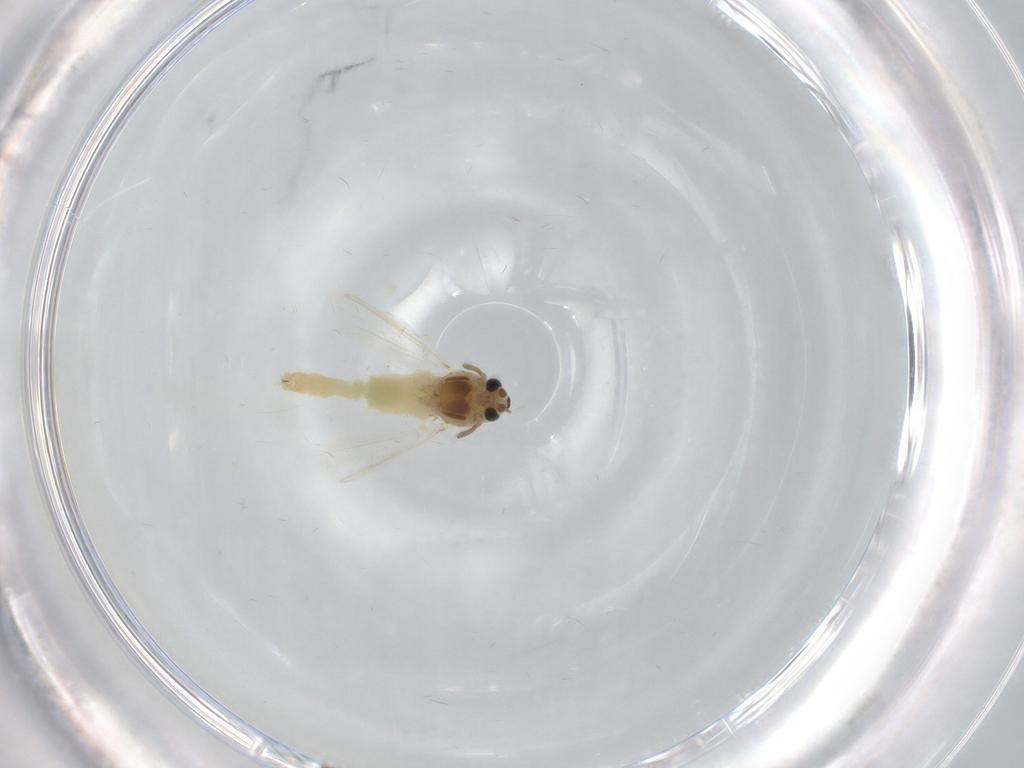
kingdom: Animalia
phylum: Arthropoda
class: Insecta
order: Diptera
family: Chironomidae
